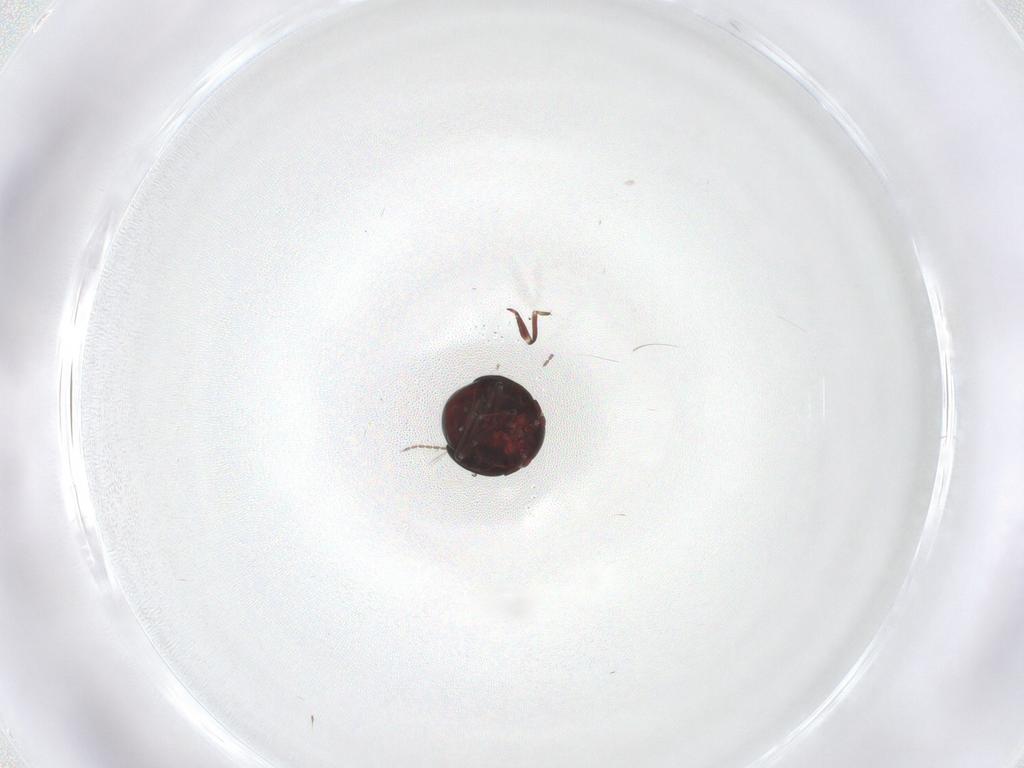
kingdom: Animalia
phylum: Arthropoda
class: Insecta
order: Hemiptera
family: Schizopteridae
